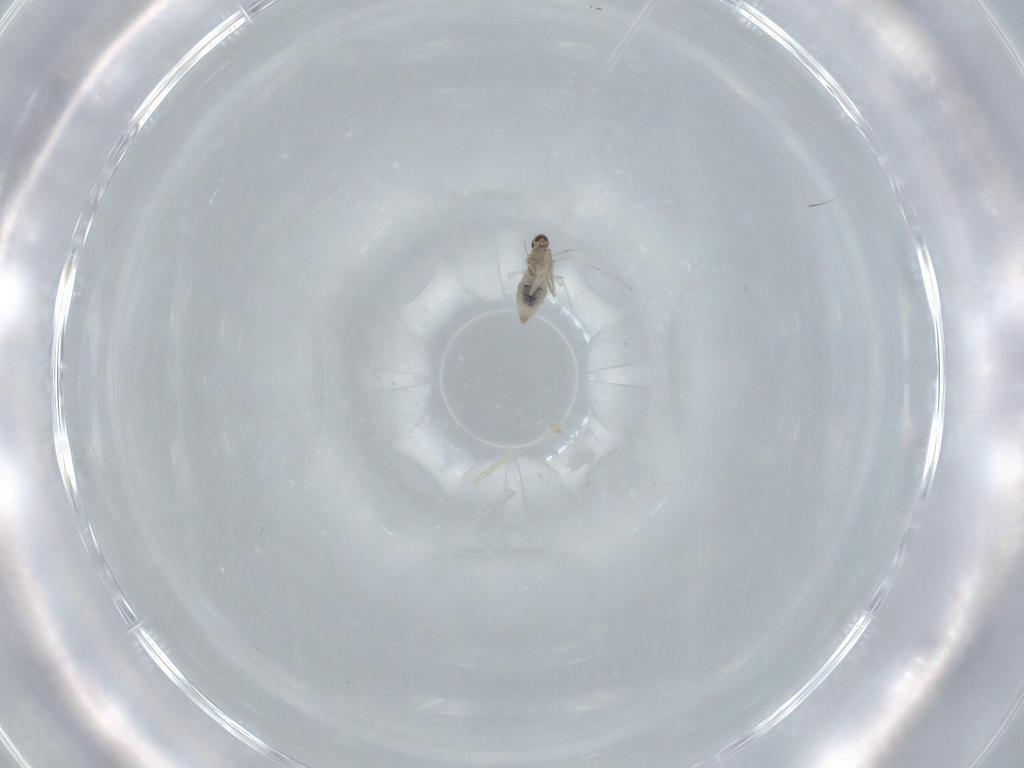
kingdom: Animalia
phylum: Arthropoda
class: Insecta
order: Diptera
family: Cecidomyiidae
